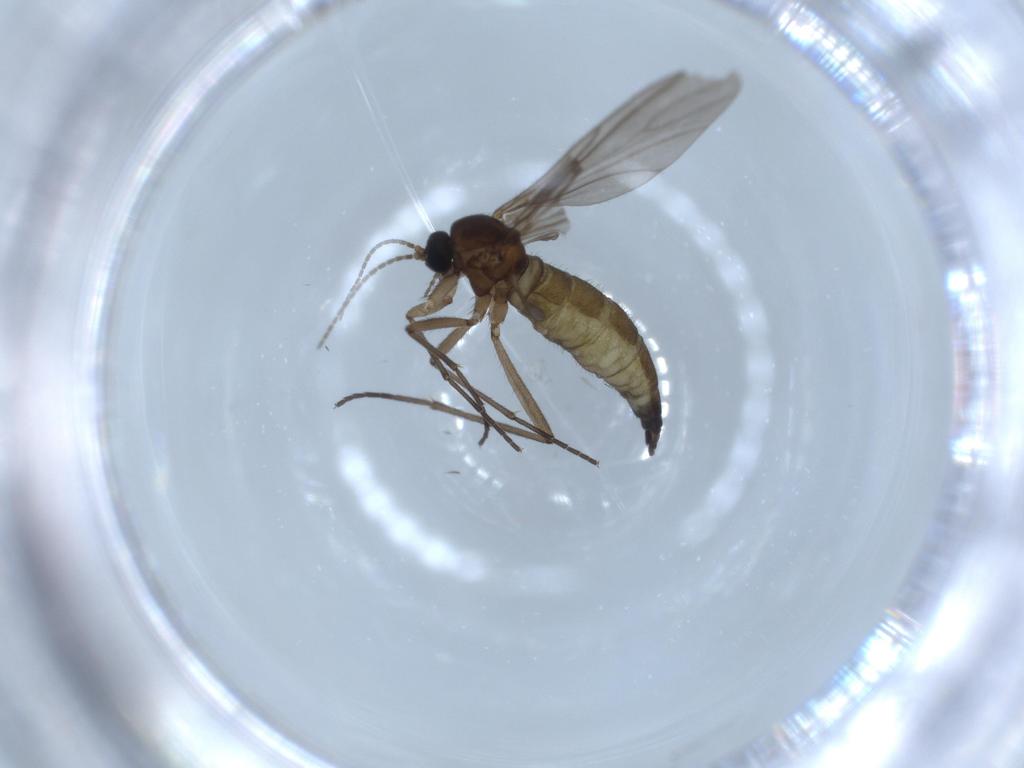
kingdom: Animalia
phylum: Arthropoda
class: Insecta
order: Diptera
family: Sciaridae
